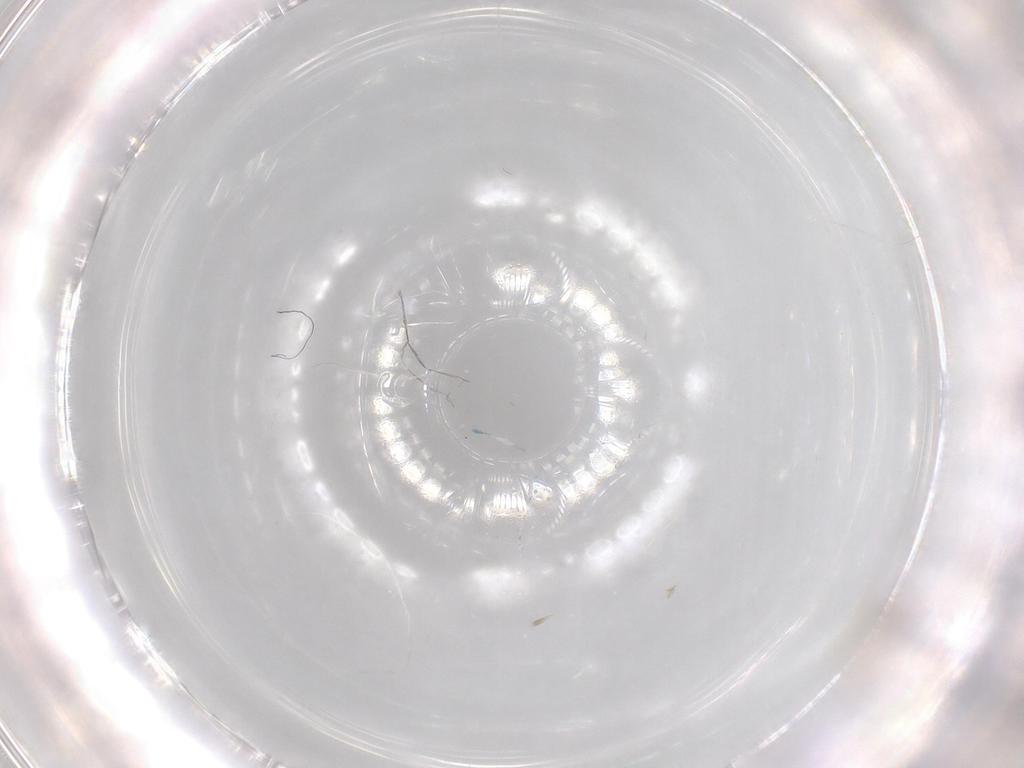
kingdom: Animalia
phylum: Arthropoda
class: Insecta
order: Diptera
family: Cecidomyiidae
